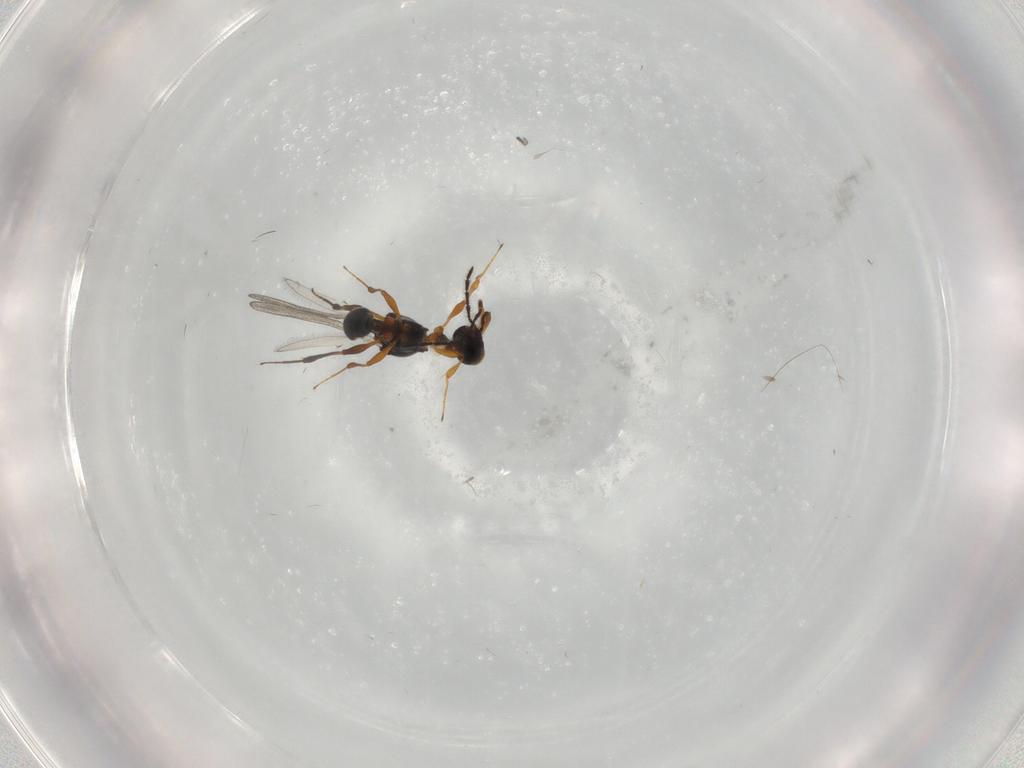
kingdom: Animalia
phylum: Arthropoda
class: Insecta
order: Hymenoptera
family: Platygastridae
